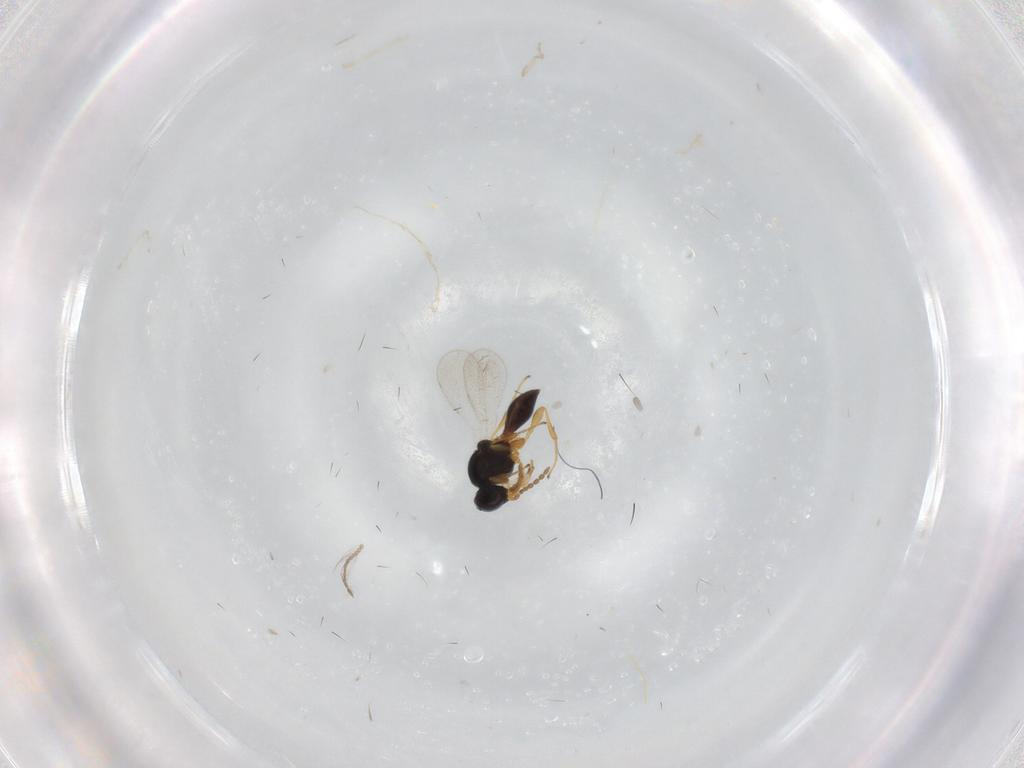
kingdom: Animalia
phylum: Arthropoda
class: Insecta
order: Hymenoptera
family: Platygastridae
